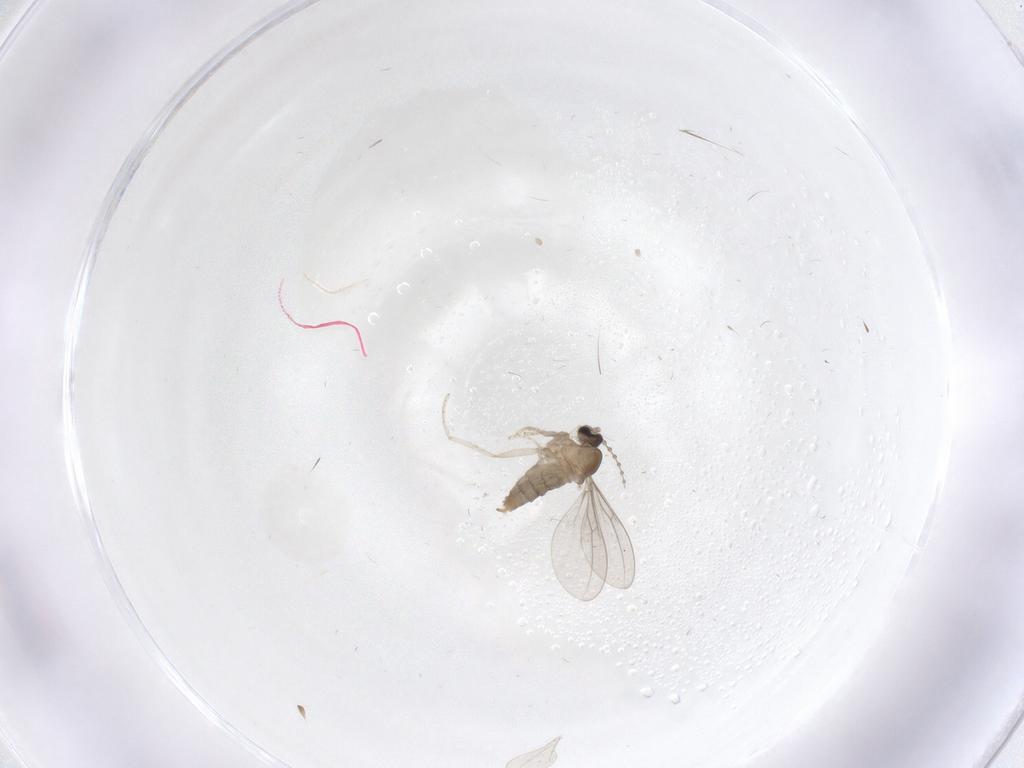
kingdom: Animalia
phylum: Arthropoda
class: Insecta
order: Diptera
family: Cecidomyiidae
